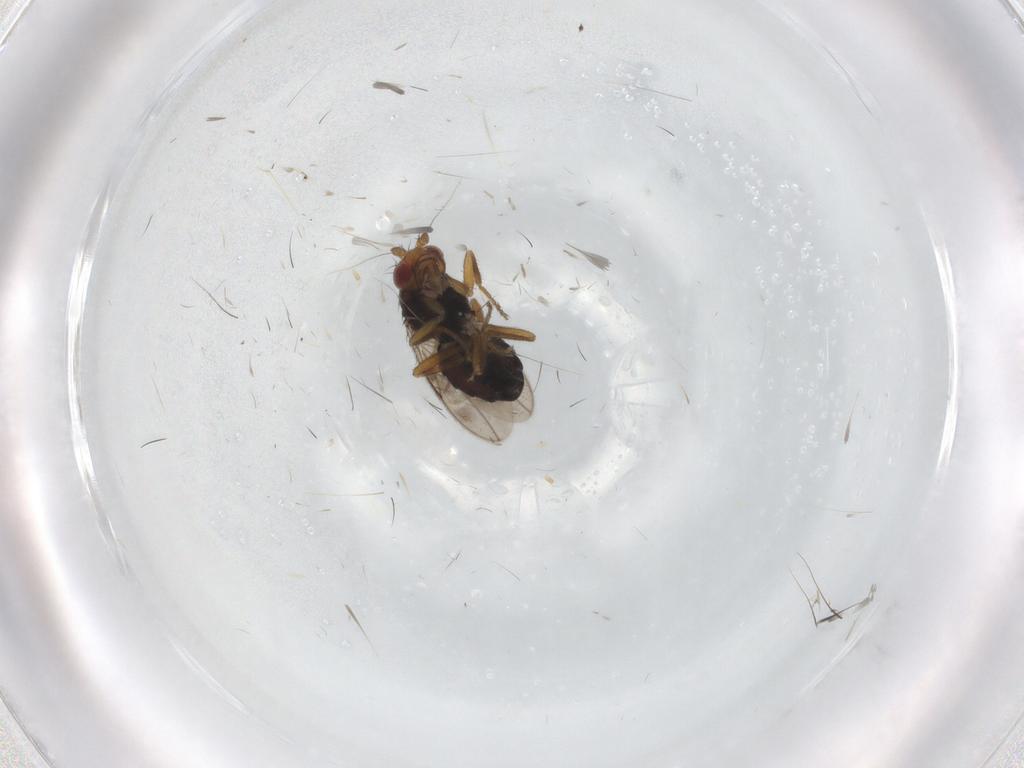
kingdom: Animalia
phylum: Arthropoda
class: Insecta
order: Diptera
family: Sphaeroceridae
